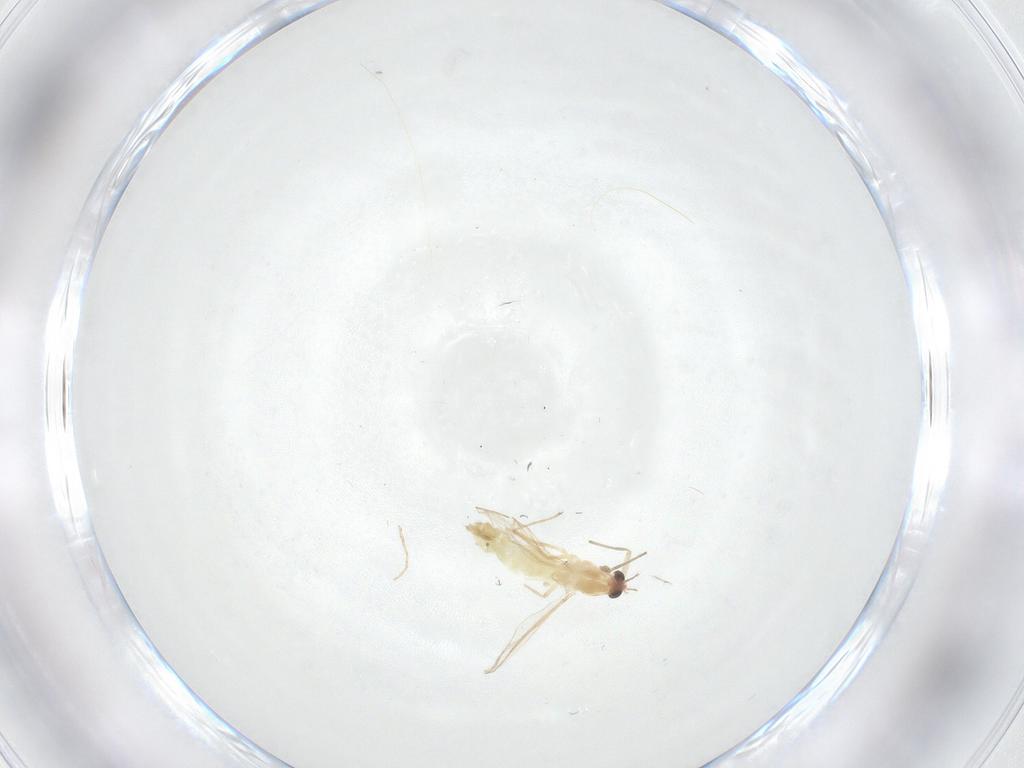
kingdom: Animalia
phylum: Arthropoda
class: Insecta
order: Diptera
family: Chironomidae
